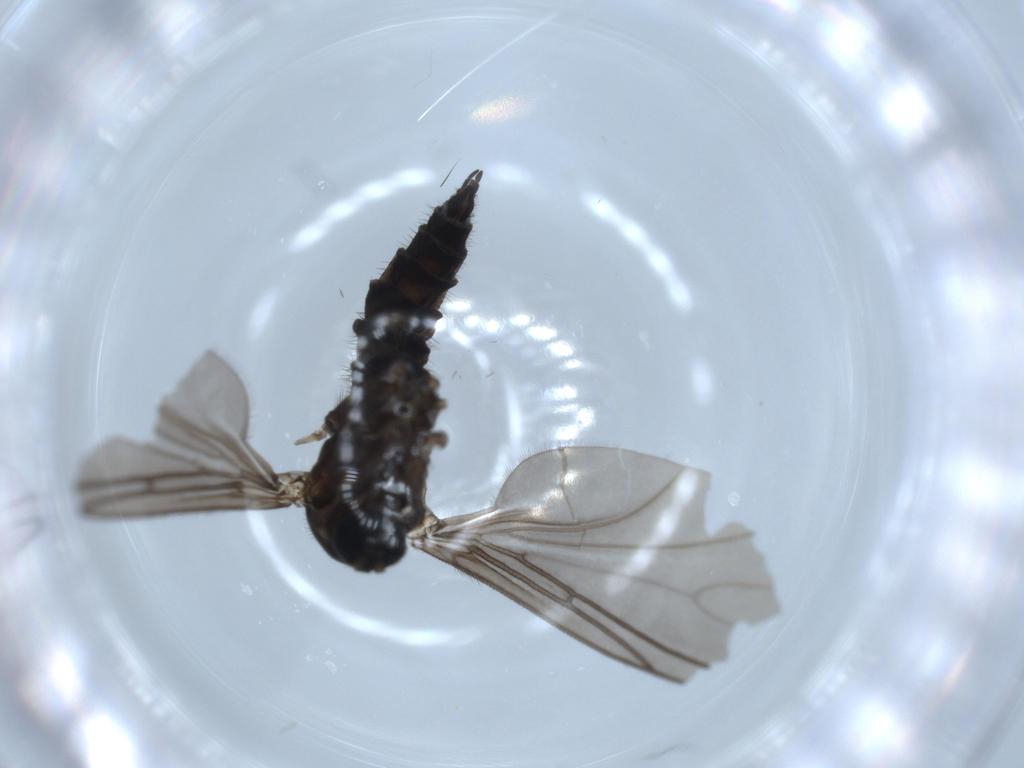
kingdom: Animalia
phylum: Arthropoda
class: Insecta
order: Diptera
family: Sciaridae
